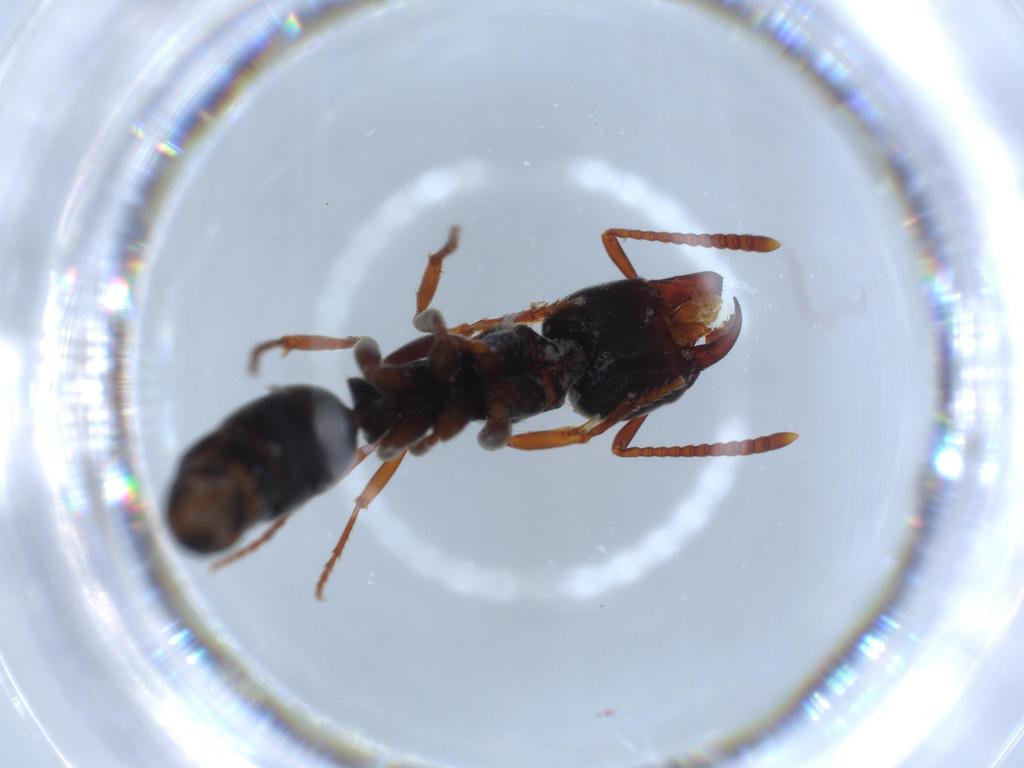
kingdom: Animalia
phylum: Arthropoda
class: Insecta
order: Hymenoptera
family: Formicidae
